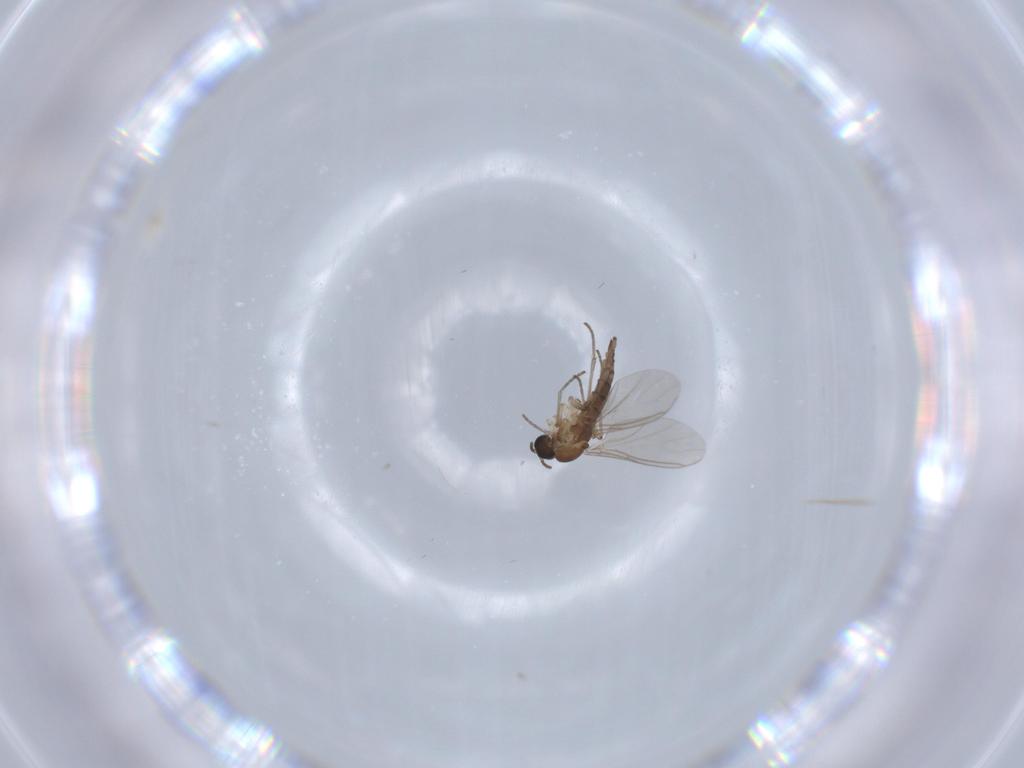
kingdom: Animalia
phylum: Arthropoda
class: Insecta
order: Diptera
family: Sciaridae
